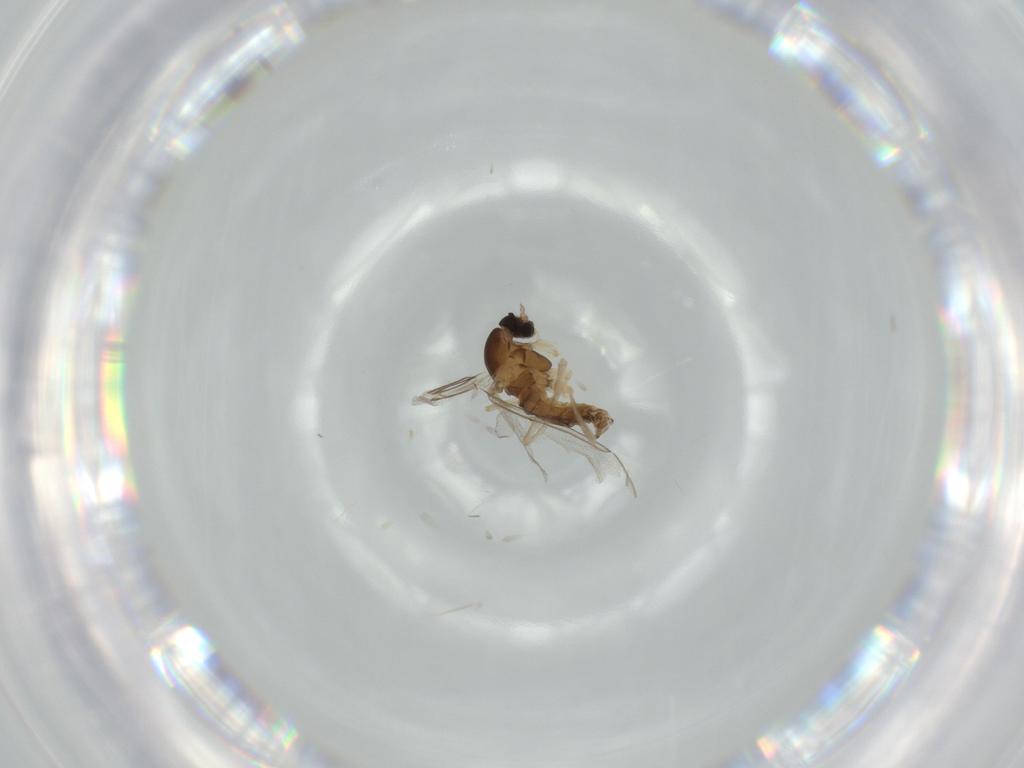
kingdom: Animalia
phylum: Arthropoda
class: Insecta
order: Diptera
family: Cecidomyiidae
